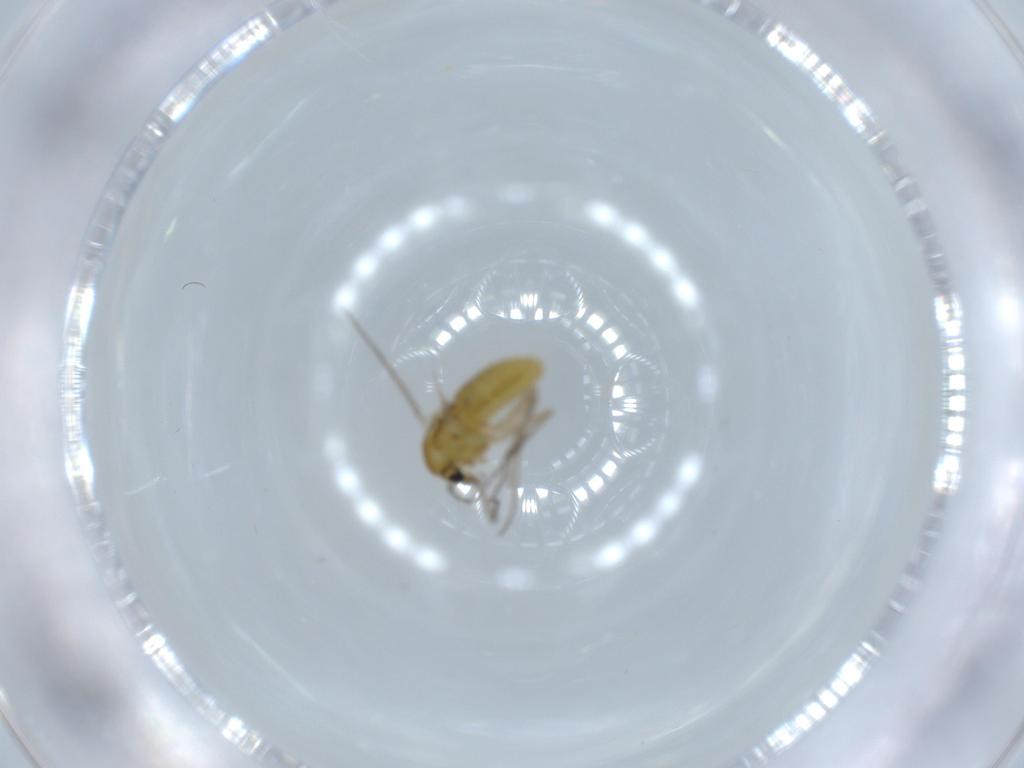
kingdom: Animalia
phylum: Arthropoda
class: Insecta
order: Diptera
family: Chironomidae
